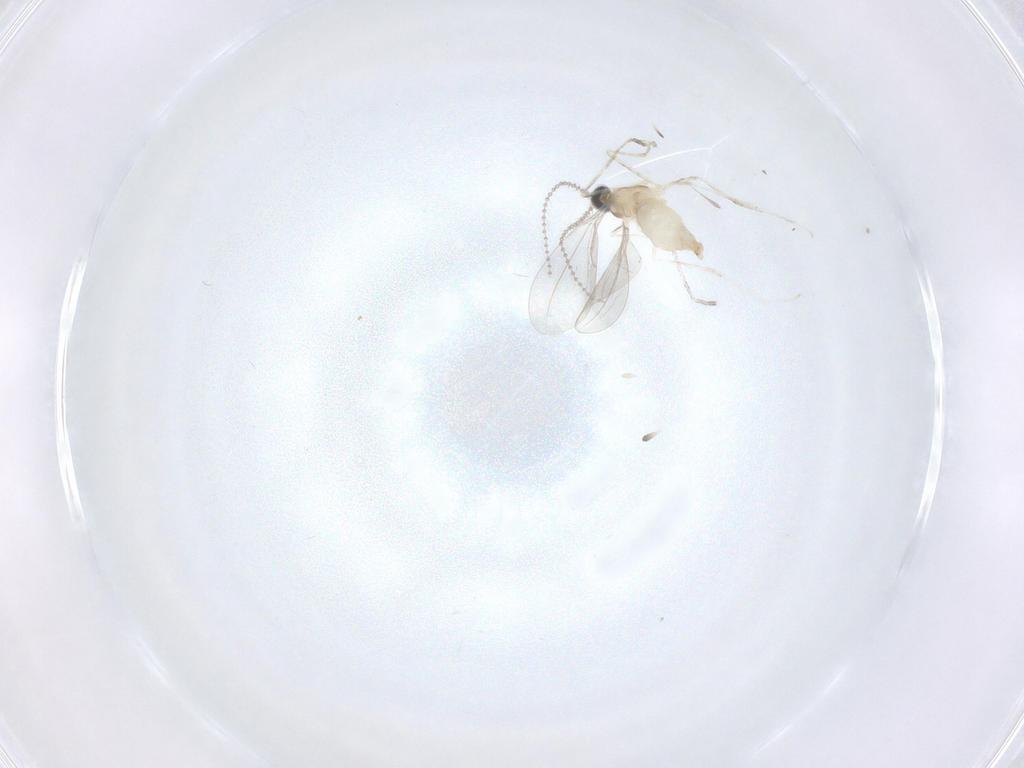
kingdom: Animalia
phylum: Arthropoda
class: Insecta
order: Diptera
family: Cecidomyiidae
